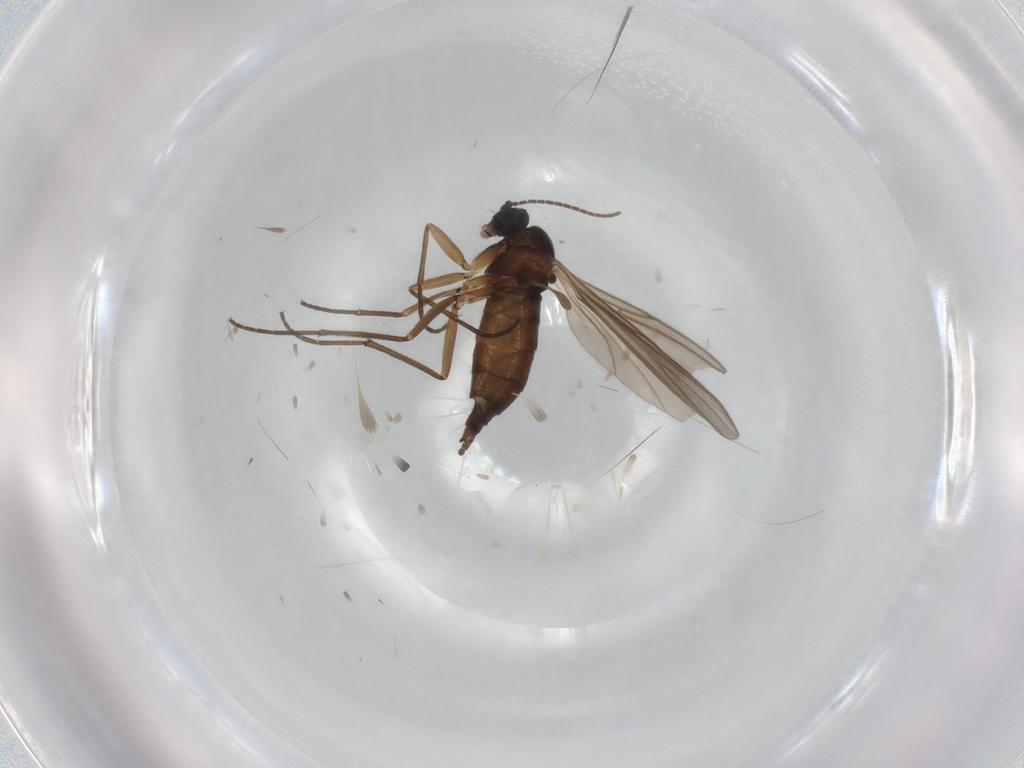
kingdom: Animalia
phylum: Arthropoda
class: Insecta
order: Diptera
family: Sciaridae
